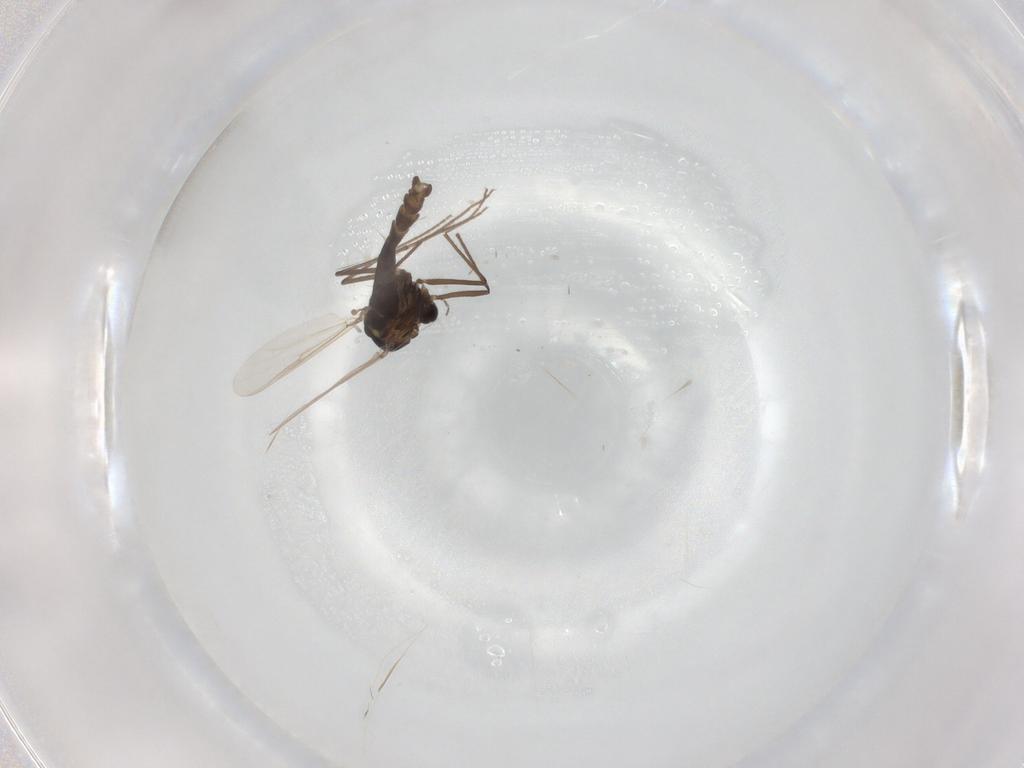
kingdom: Animalia
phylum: Arthropoda
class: Insecta
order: Diptera
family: Chironomidae
